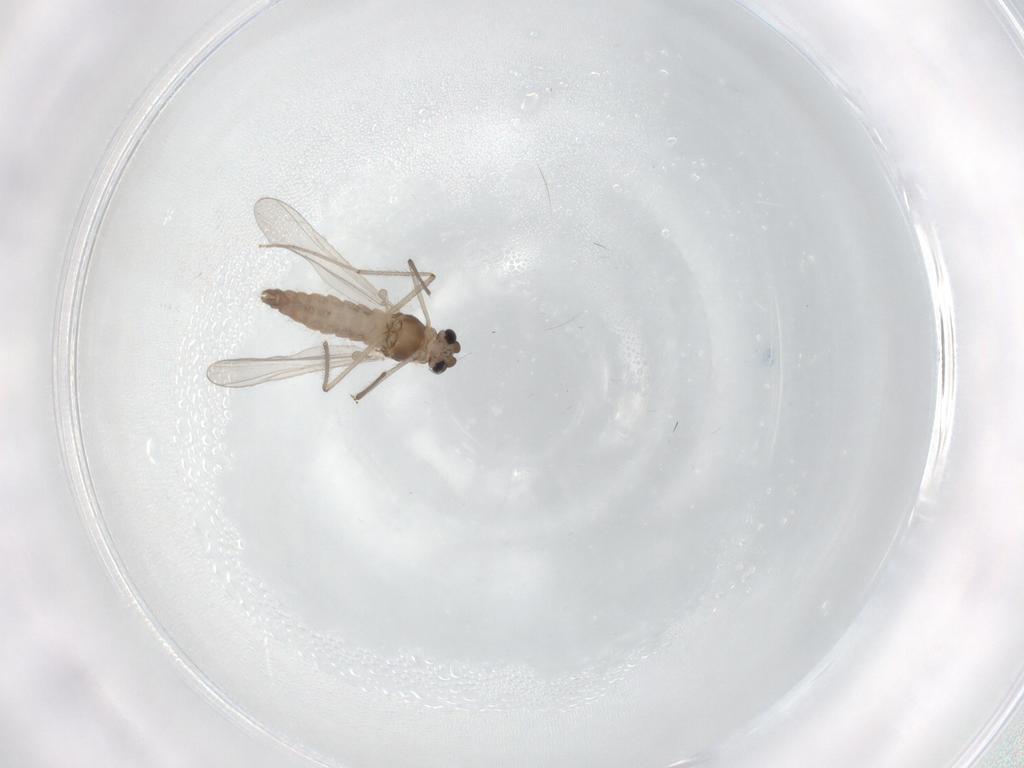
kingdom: Animalia
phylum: Arthropoda
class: Insecta
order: Diptera
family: Chironomidae
